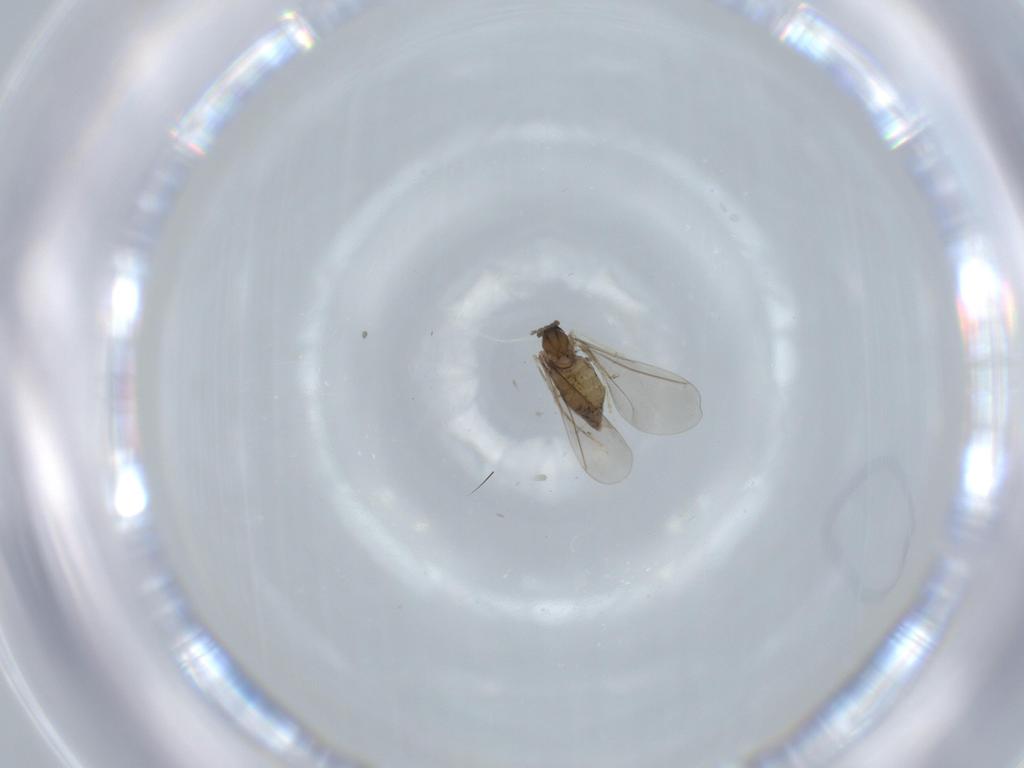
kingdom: Animalia
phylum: Arthropoda
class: Insecta
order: Diptera
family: Cecidomyiidae
